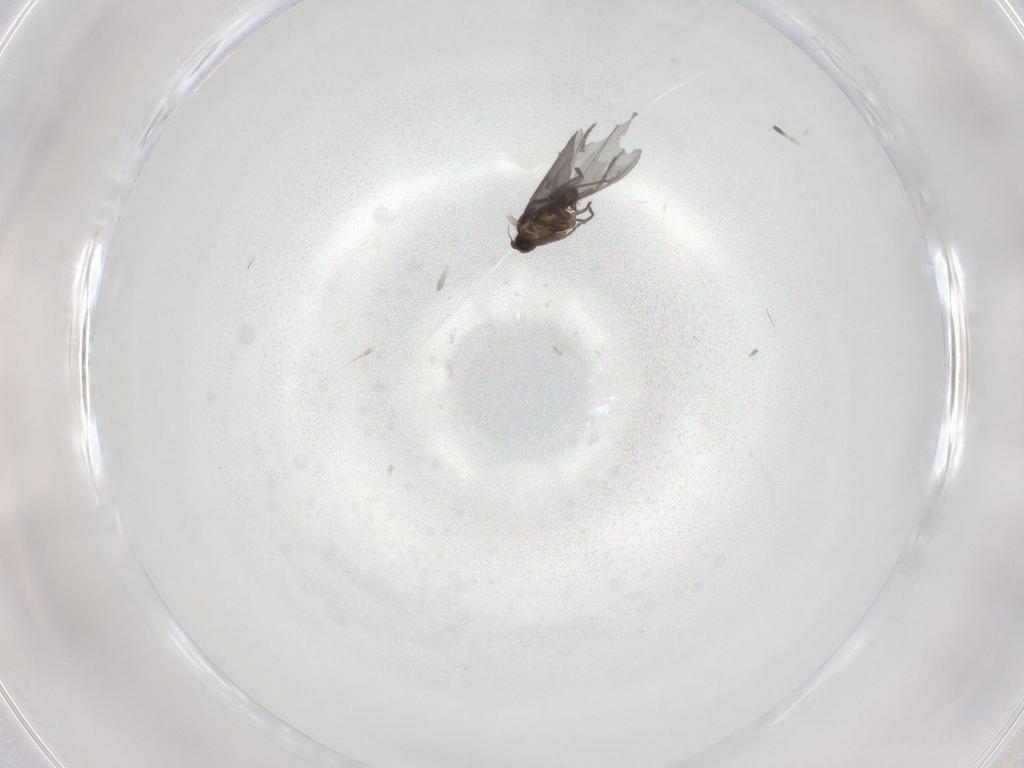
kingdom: Animalia
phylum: Arthropoda
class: Insecta
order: Diptera
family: Phoridae
